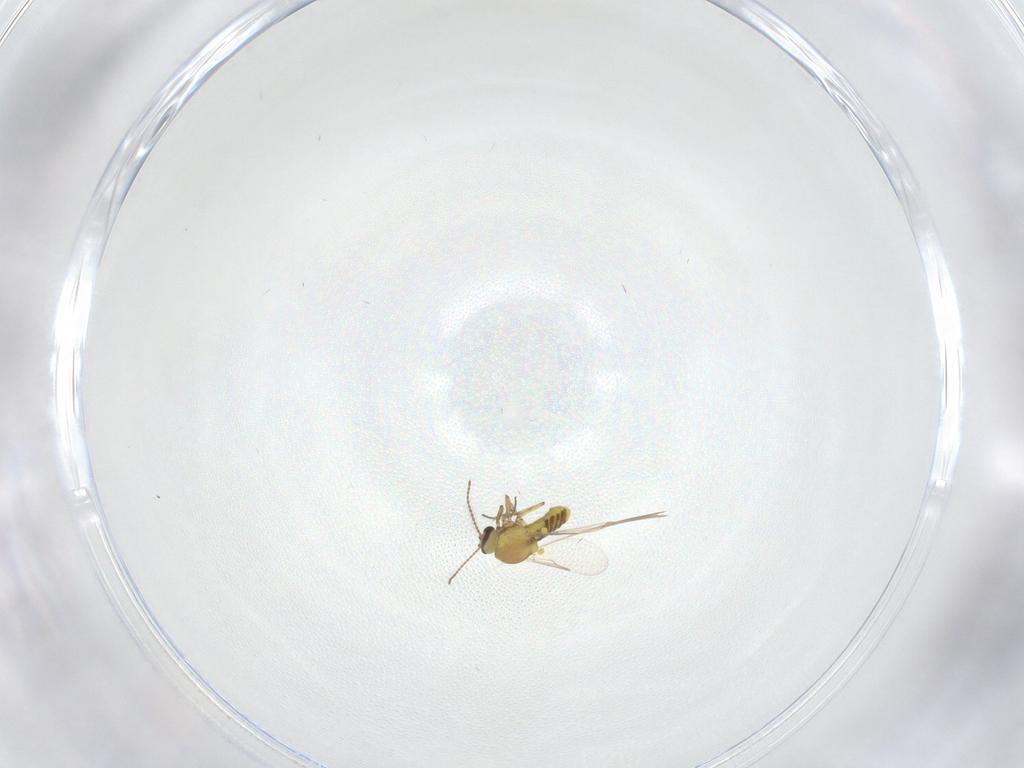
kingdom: Animalia
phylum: Arthropoda
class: Insecta
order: Diptera
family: Ceratopogonidae
